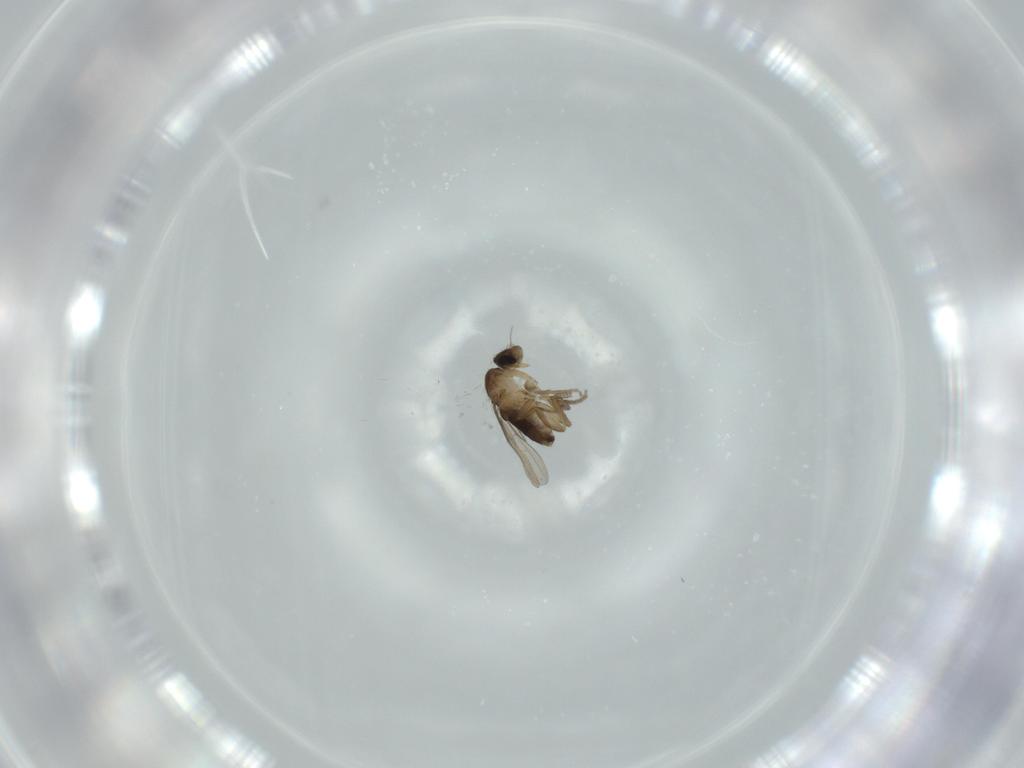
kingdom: Animalia
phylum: Arthropoda
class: Insecta
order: Diptera
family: Phoridae
